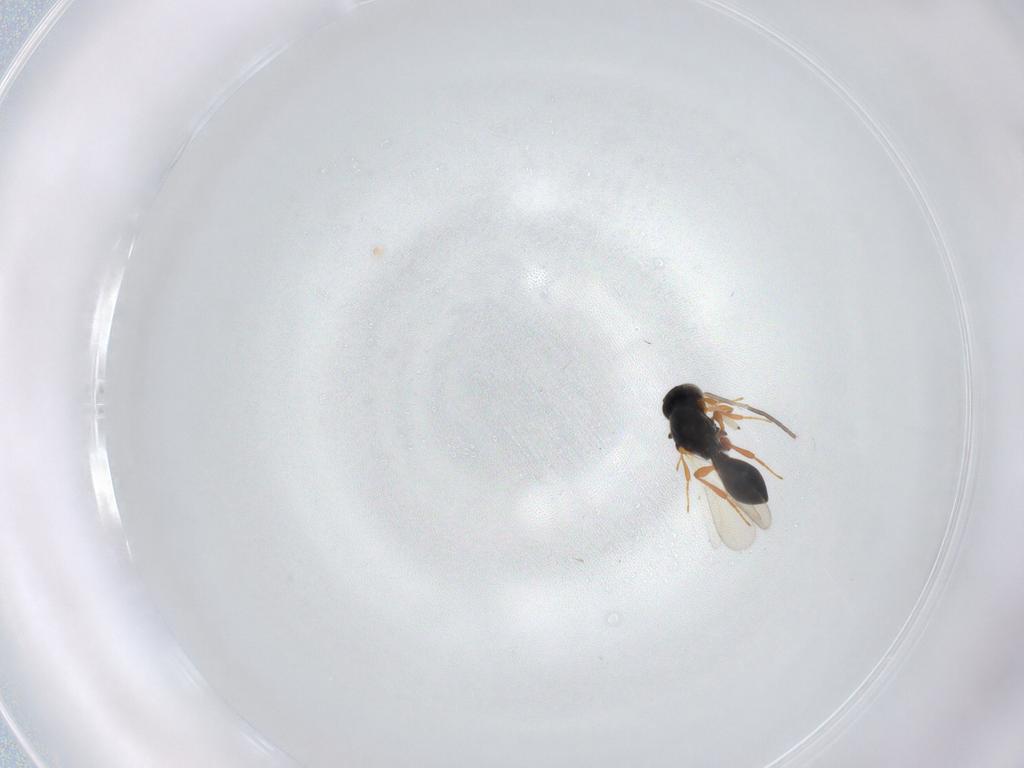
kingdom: Animalia
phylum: Arthropoda
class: Insecta
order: Hymenoptera
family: Platygastridae
